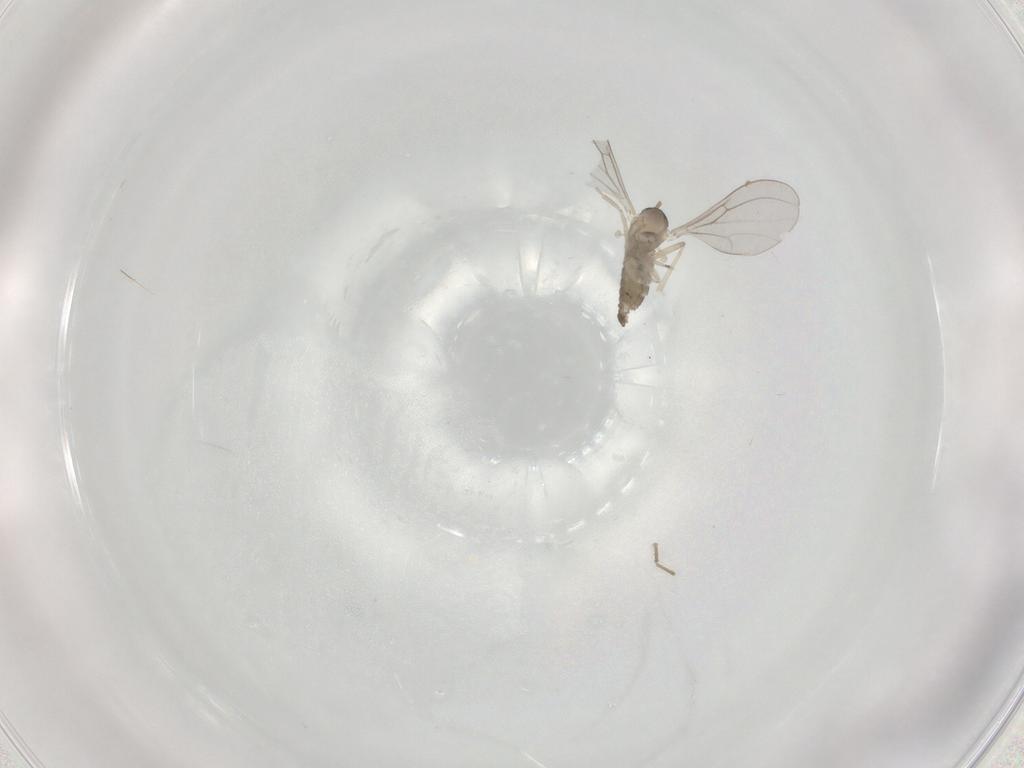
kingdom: Animalia
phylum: Arthropoda
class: Insecta
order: Diptera
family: Cecidomyiidae
